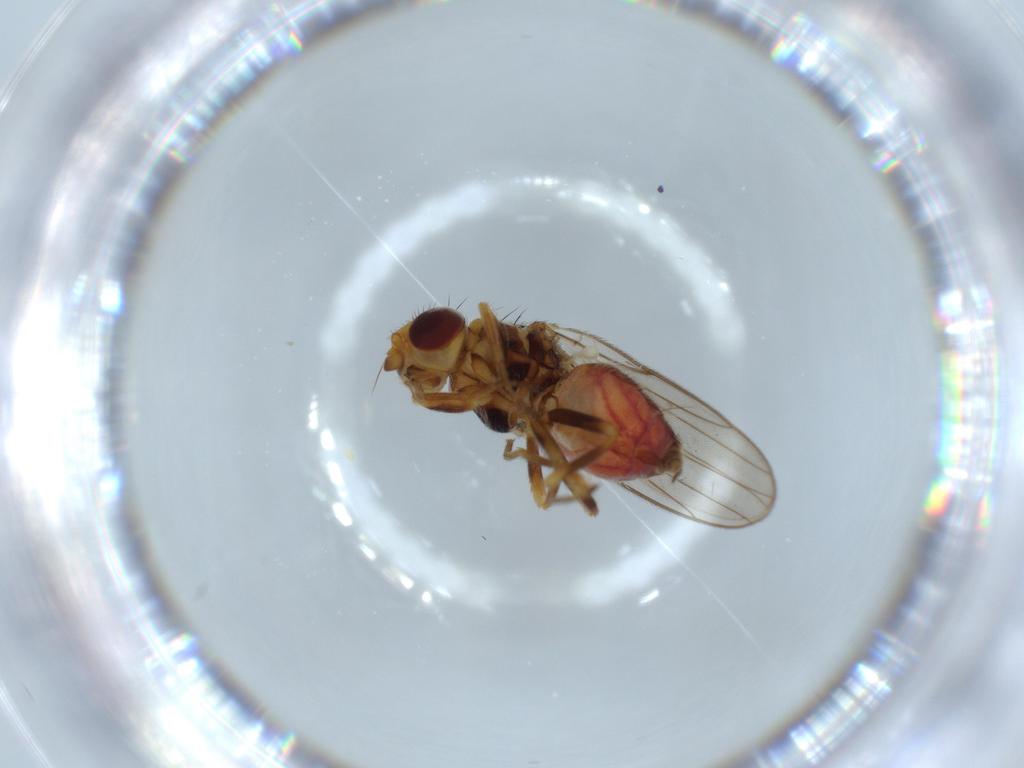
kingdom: Animalia
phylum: Arthropoda
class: Insecta
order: Diptera
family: Chloropidae
